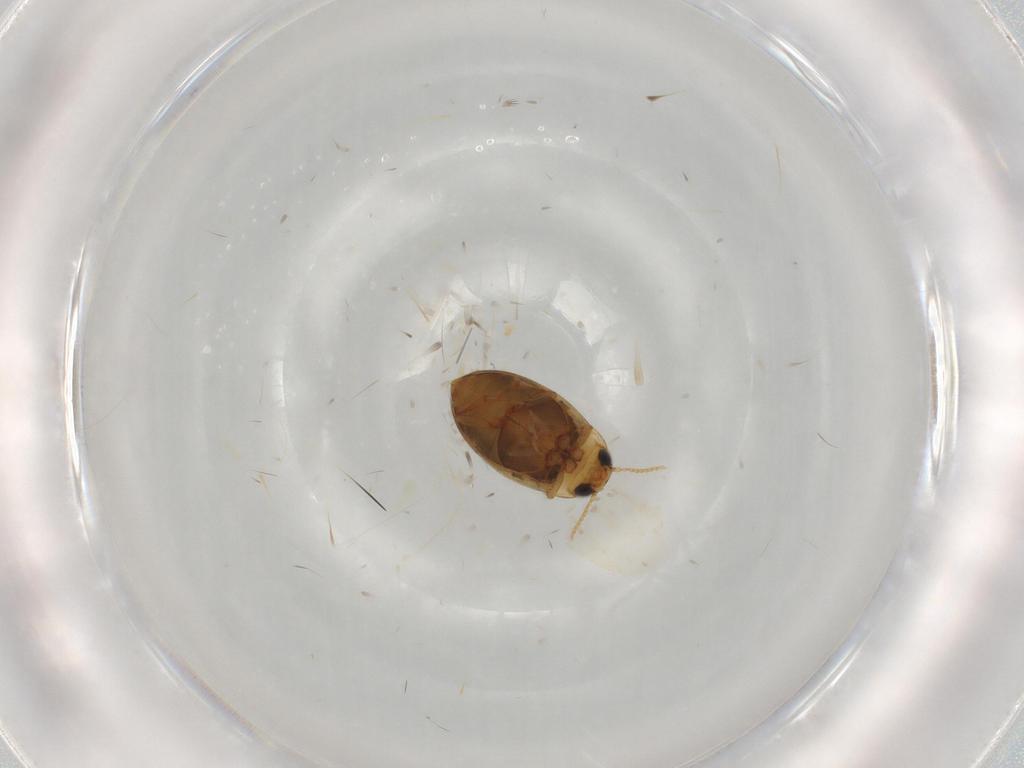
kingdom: Animalia
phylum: Arthropoda
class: Insecta
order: Coleoptera
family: Dytiscidae
